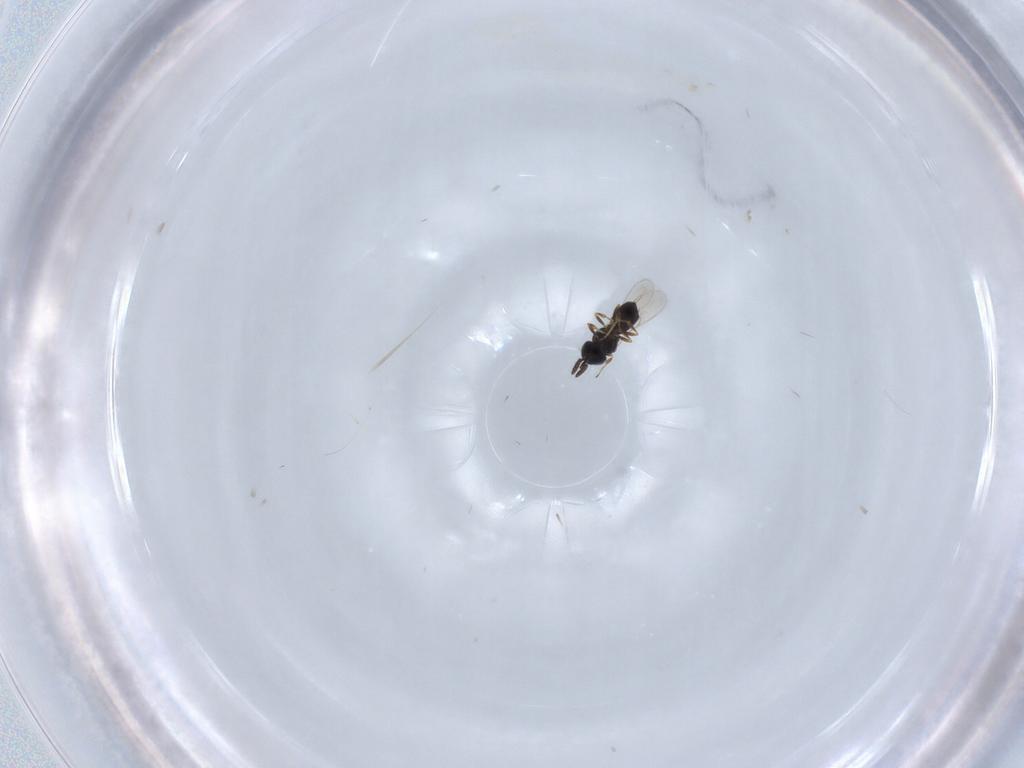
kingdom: Animalia
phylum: Arthropoda
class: Insecta
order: Hymenoptera
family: Scelionidae
